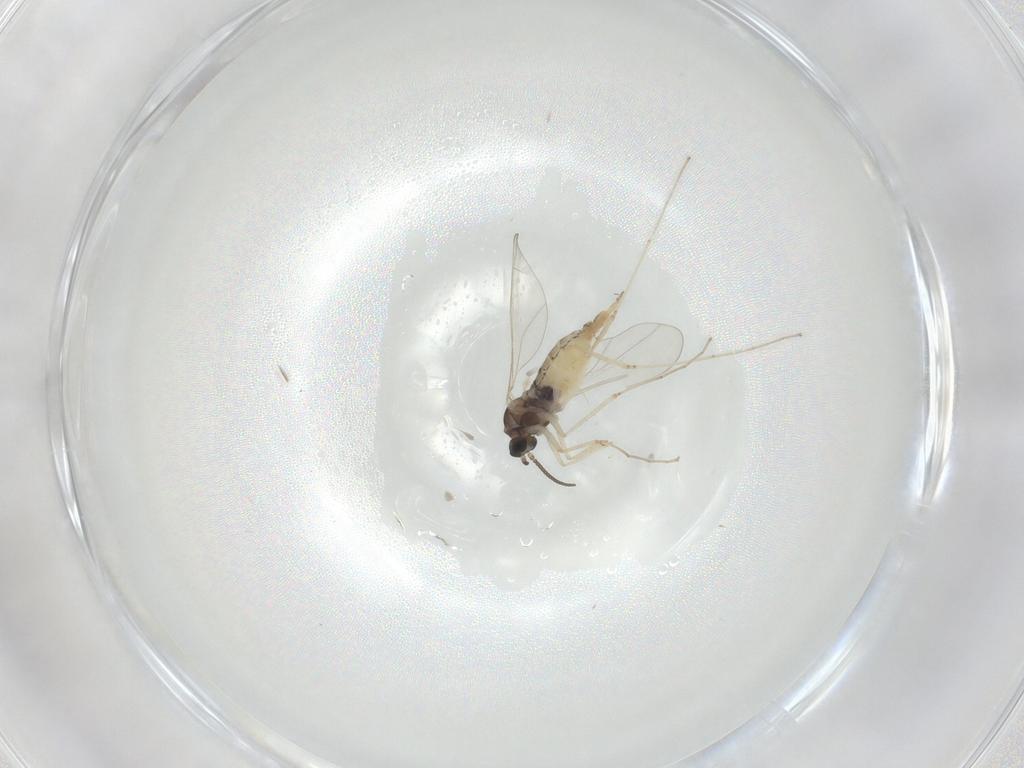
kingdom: Animalia
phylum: Arthropoda
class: Insecta
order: Diptera
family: Cecidomyiidae
